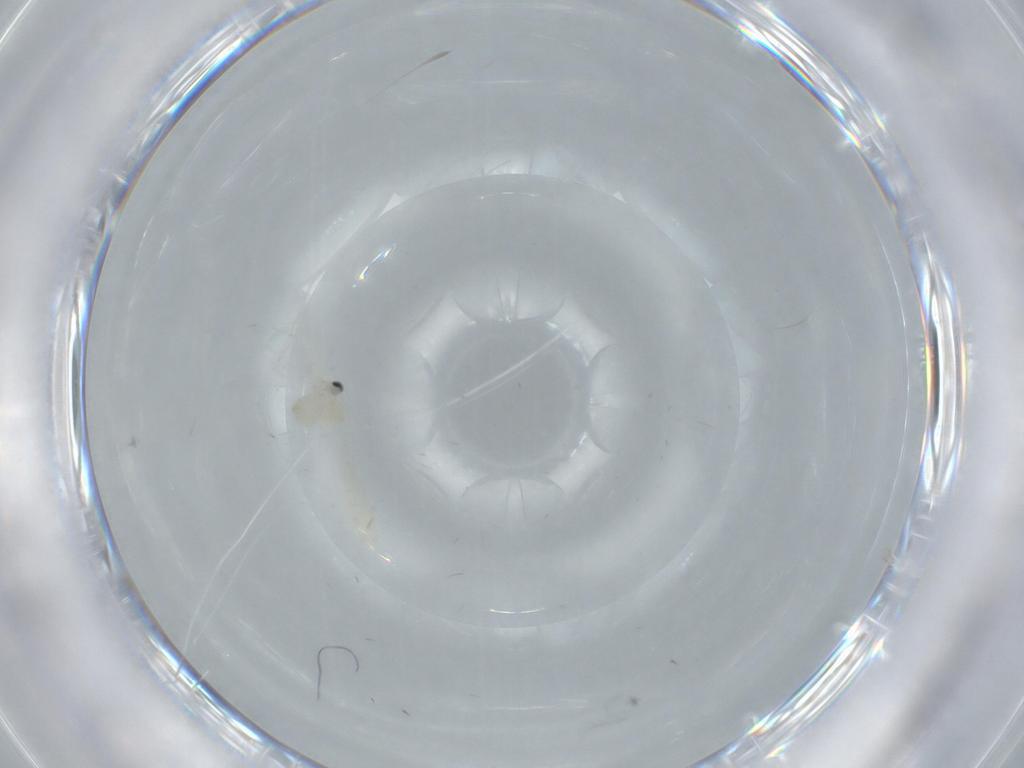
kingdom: Animalia
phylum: Arthropoda
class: Insecta
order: Diptera
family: Cecidomyiidae
